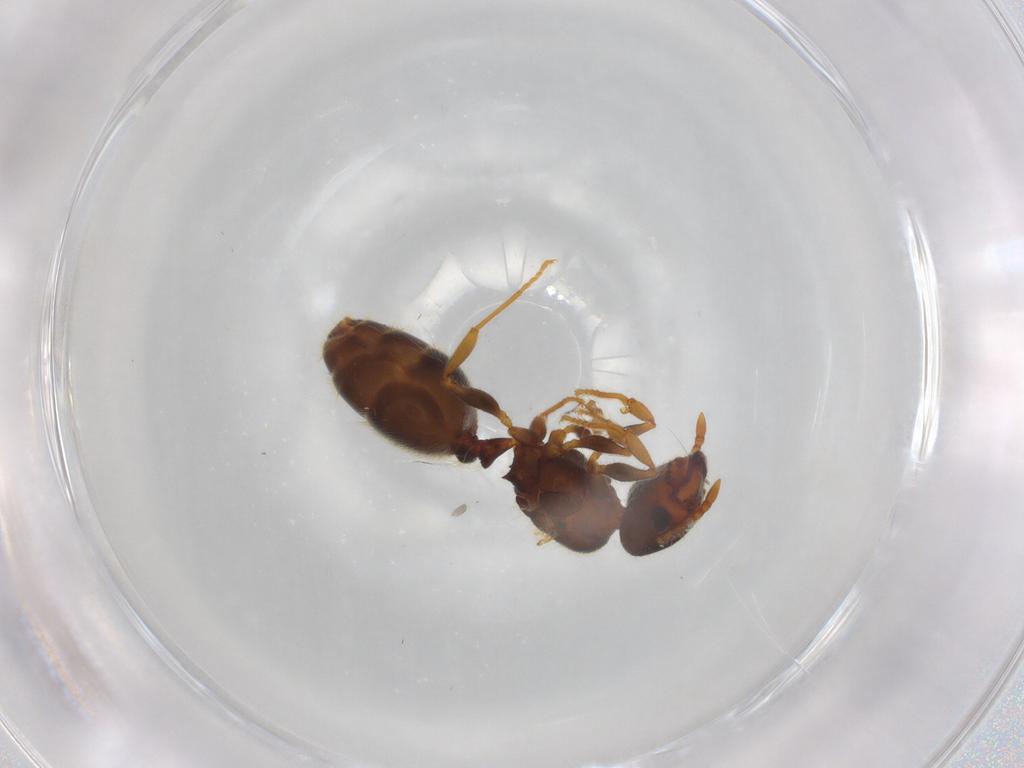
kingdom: Animalia
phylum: Arthropoda
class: Insecta
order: Hymenoptera
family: Formicidae
